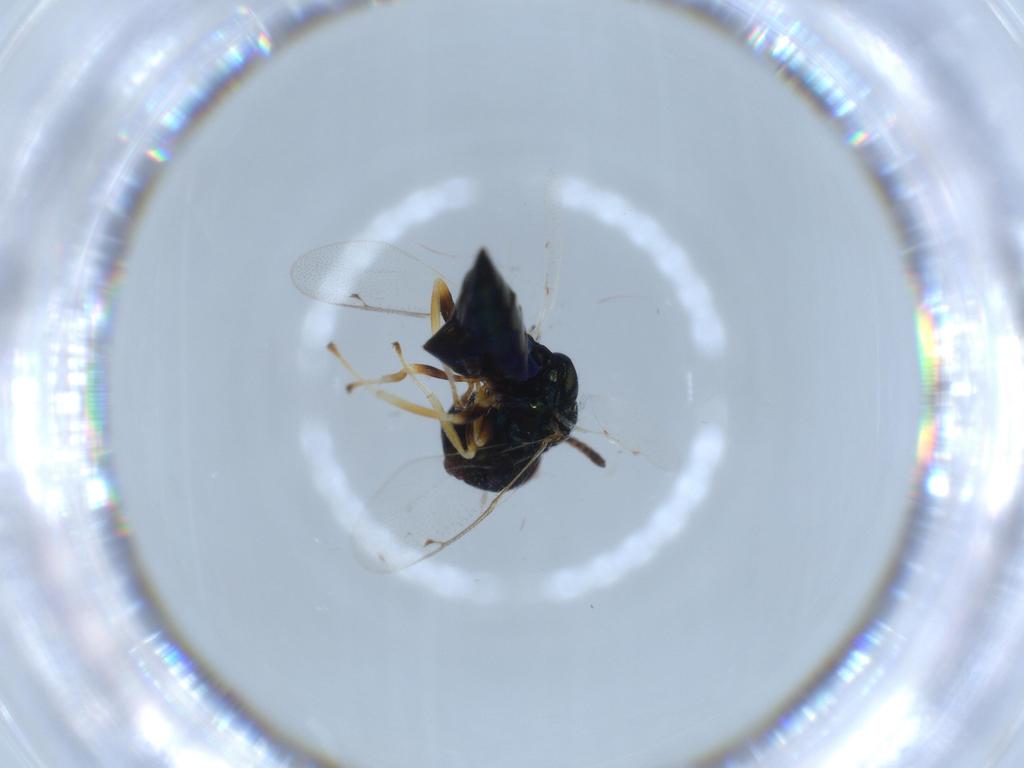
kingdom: Animalia
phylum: Arthropoda
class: Insecta
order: Hymenoptera
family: Pteromalidae
